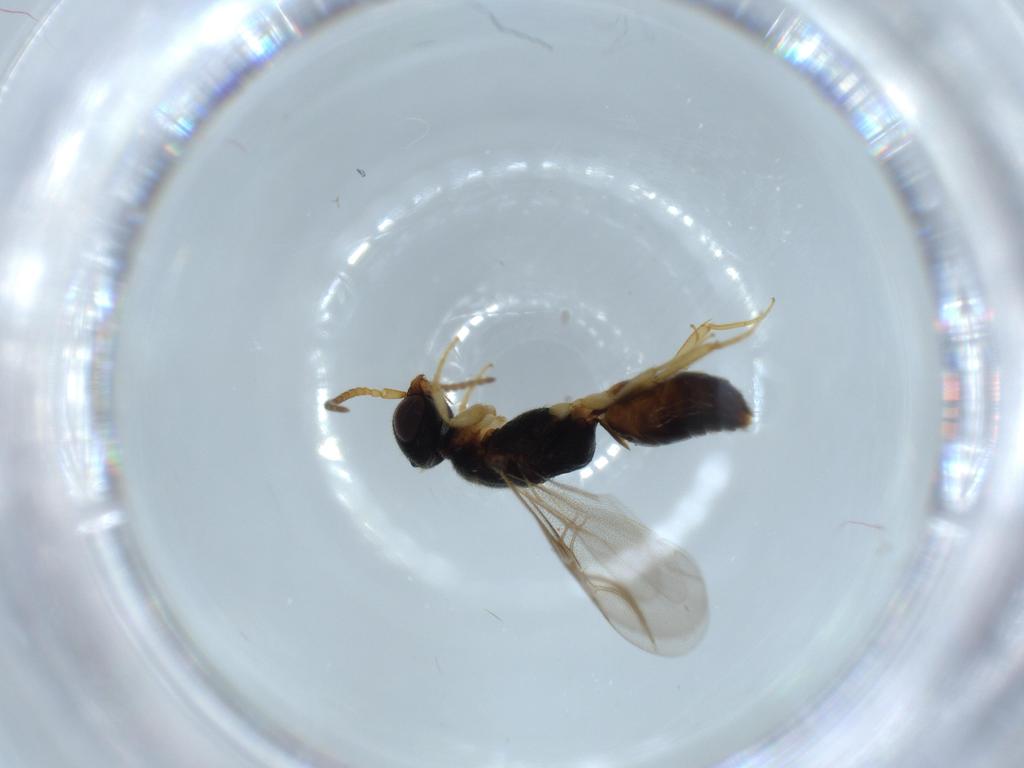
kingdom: Animalia
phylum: Arthropoda
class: Insecta
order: Hymenoptera
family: Bethylidae
